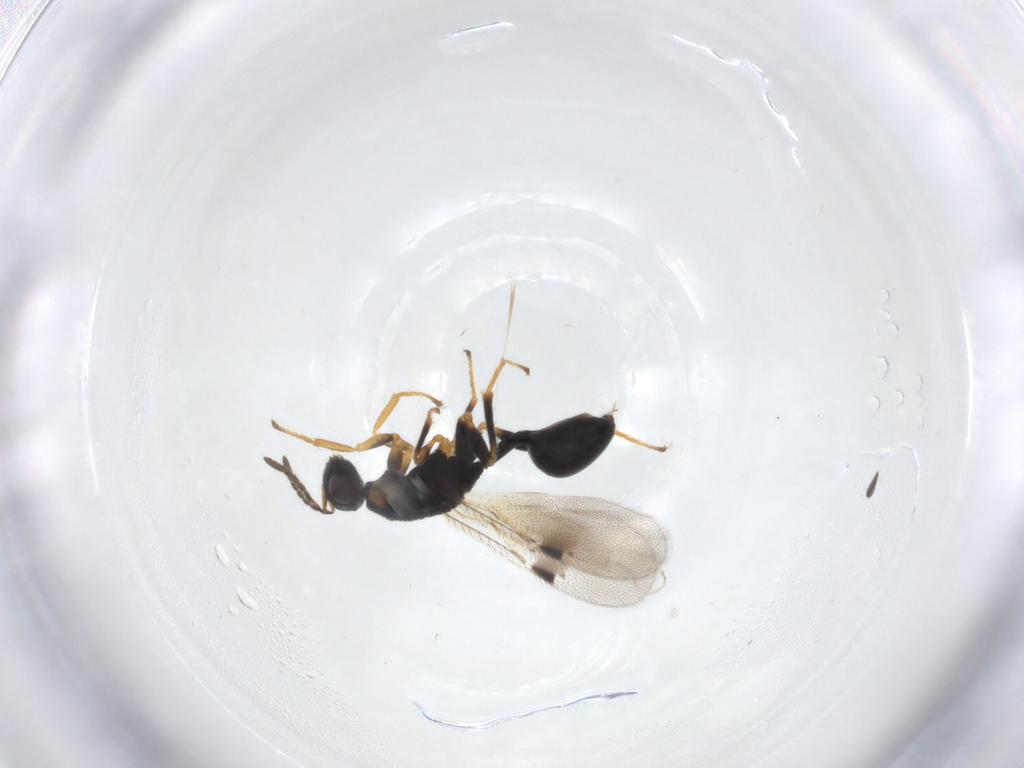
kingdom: Animalia
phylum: Arthropoda
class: Insecta
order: Hymenoptera
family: Eurytomidae
